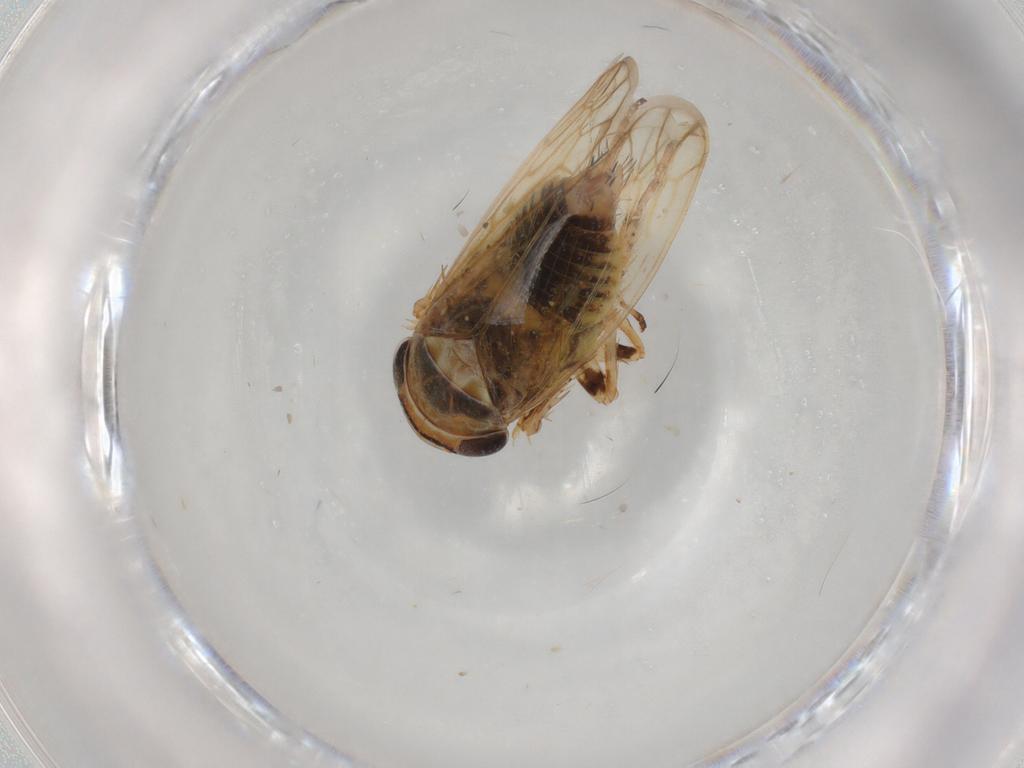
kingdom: Animalia
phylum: Arthropoda
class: Insecta
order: Hemiptera
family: Cicadellidae
